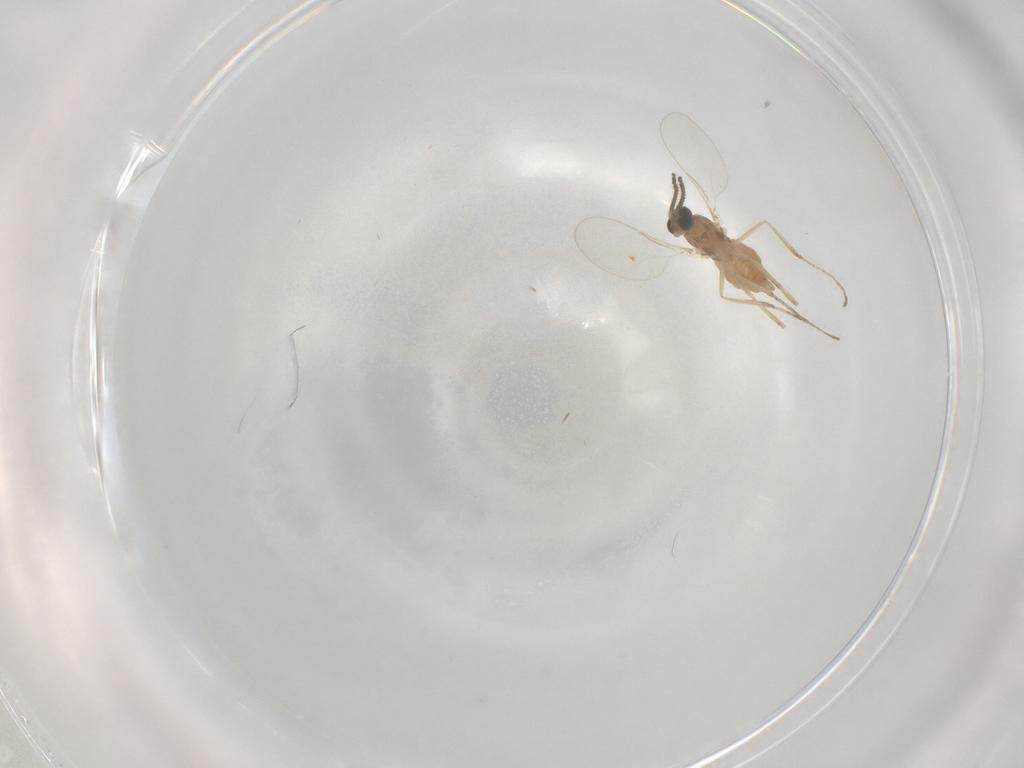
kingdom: Animalia
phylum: Arthropoda
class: Insecta
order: Diptera
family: Cecidomyiidae
